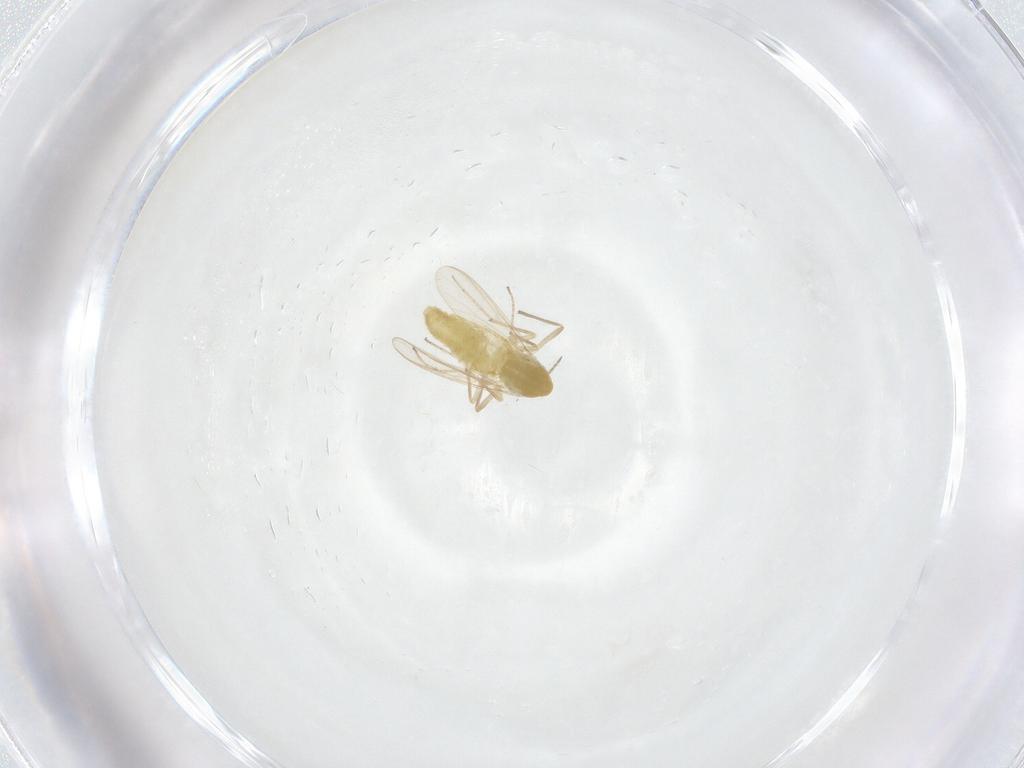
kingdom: Animalia
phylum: Arthropoda
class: Insecta
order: Diptera
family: Chironomidae
